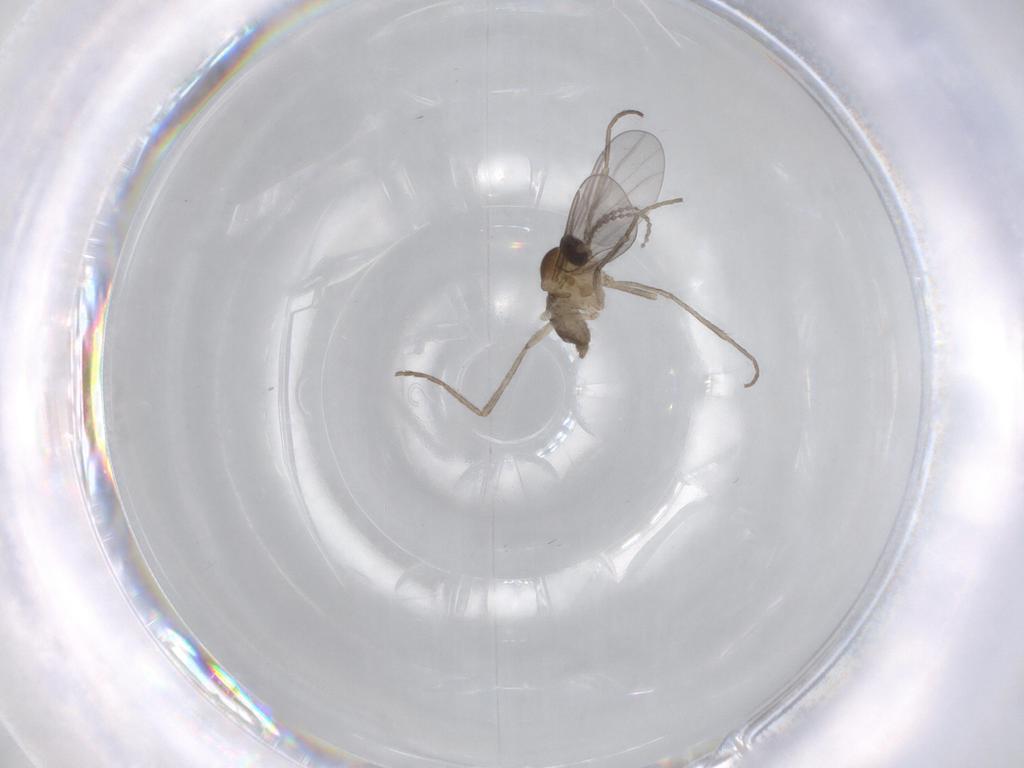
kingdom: Animalia
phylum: Arthropoda
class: Insecta
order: Diptera
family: Cecidomyiidae
